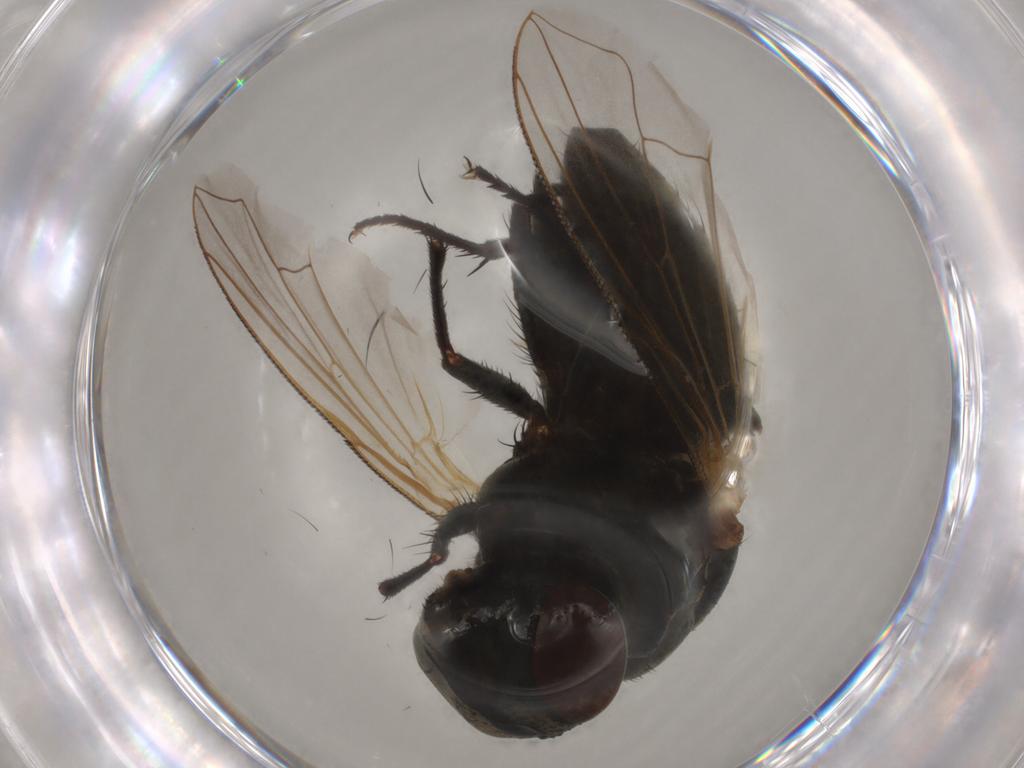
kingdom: Animalia
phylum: Arthropoda
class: Insecta
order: Diptera
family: Muscidae
